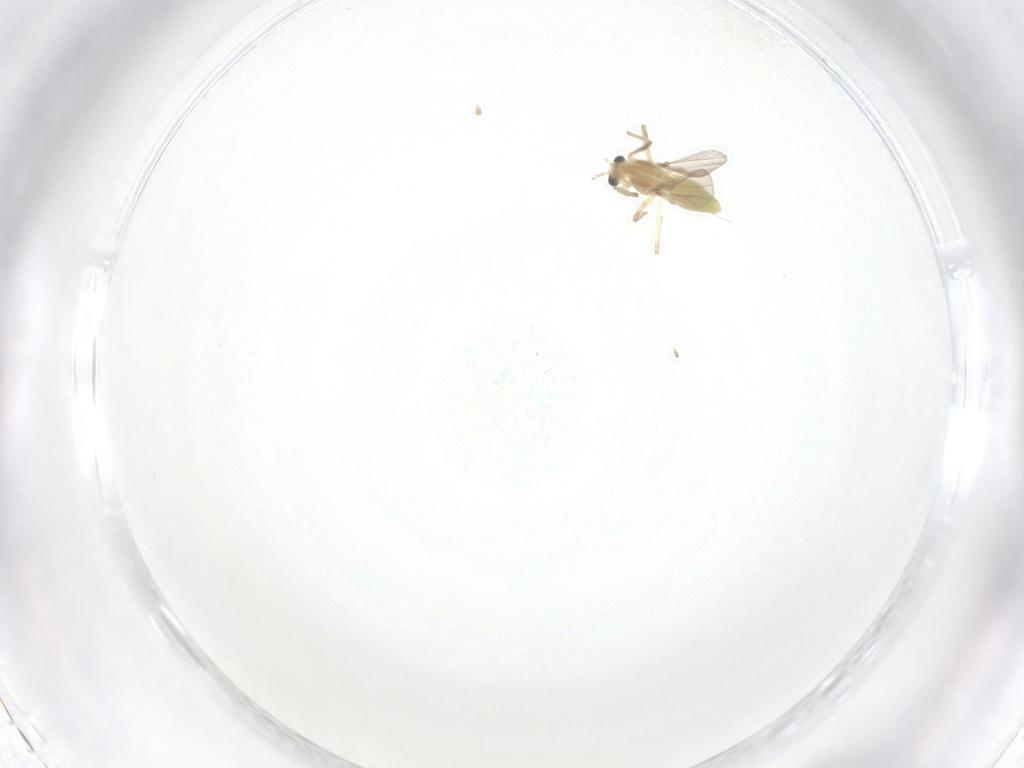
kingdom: Animalia
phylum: Arthropoda
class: Insecta
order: Diptera
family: Chironomidae
